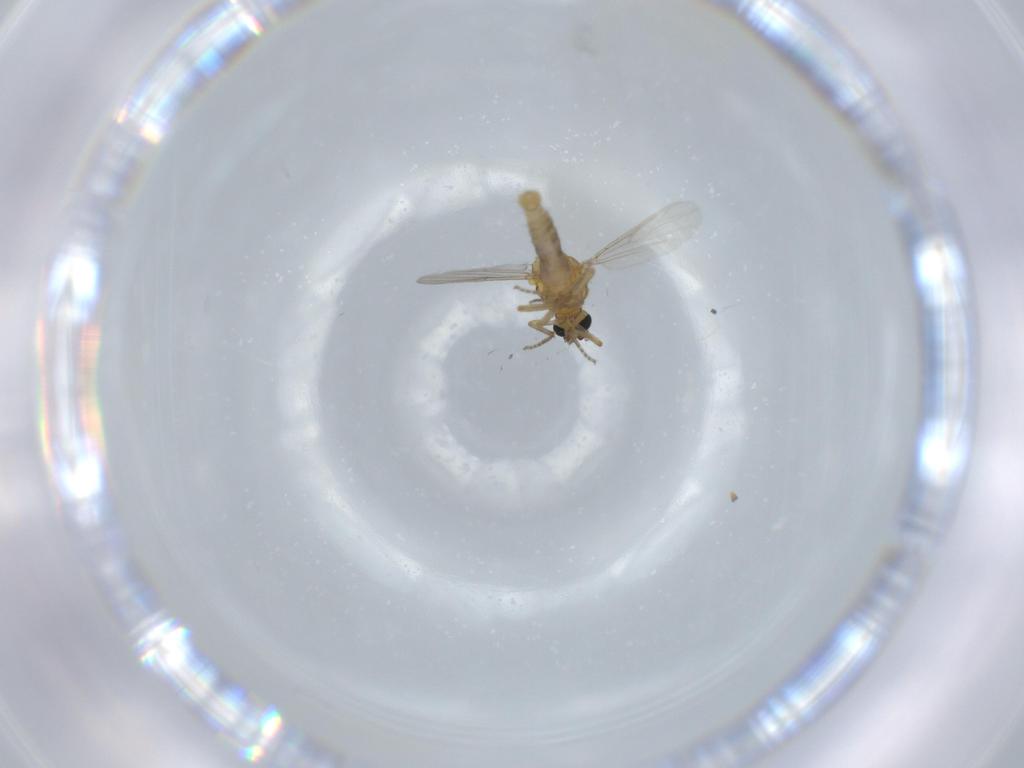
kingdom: Animalia
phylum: Arthropoda
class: Insecta
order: Diptera
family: Ceratopogonidae
